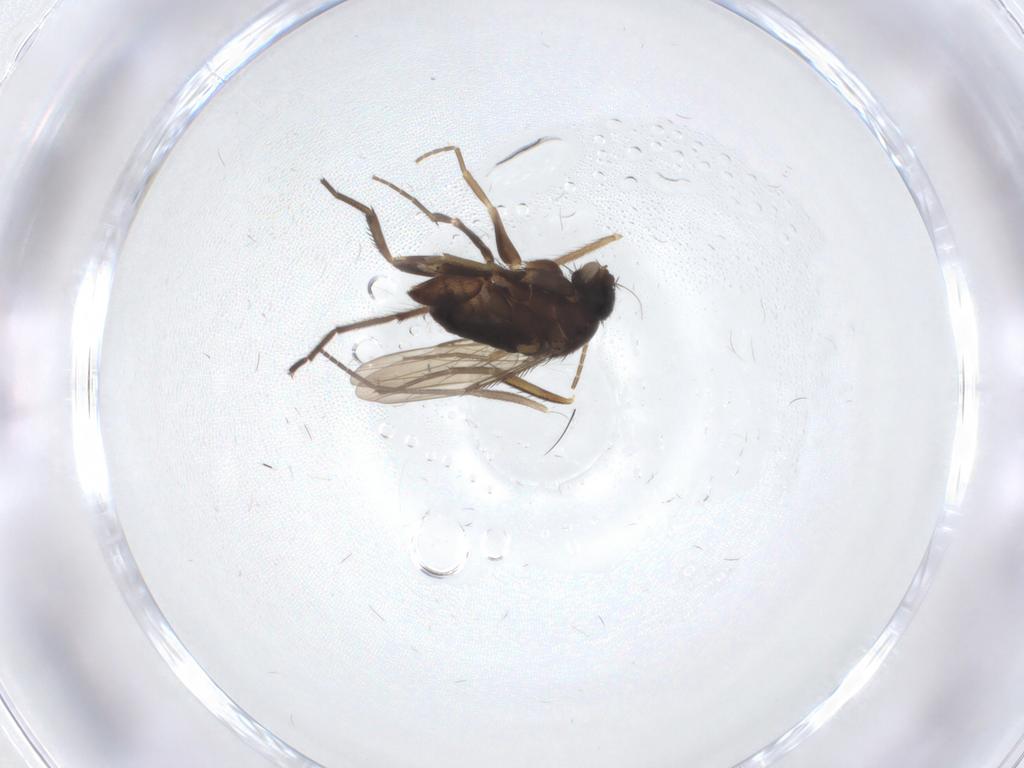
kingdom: Animalia
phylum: Arthropoda
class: Insecta
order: Diptera
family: Phoridae
